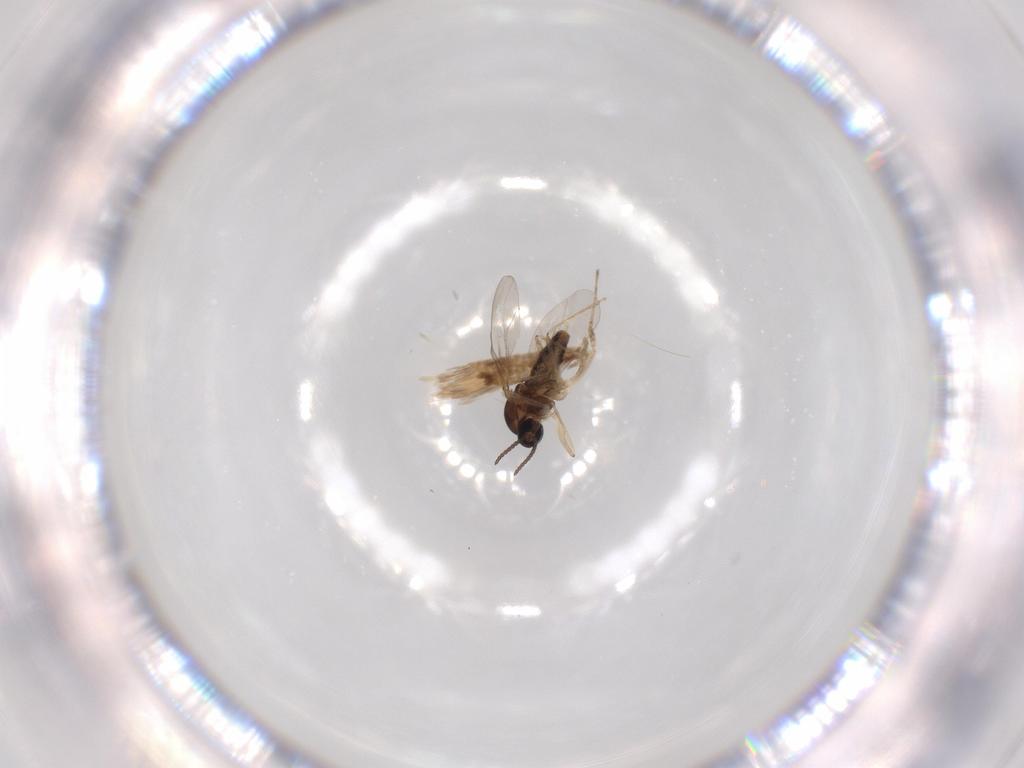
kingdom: Animalia
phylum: Arthropoda
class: Insecta
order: Diptera
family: Cecidomyiidae
